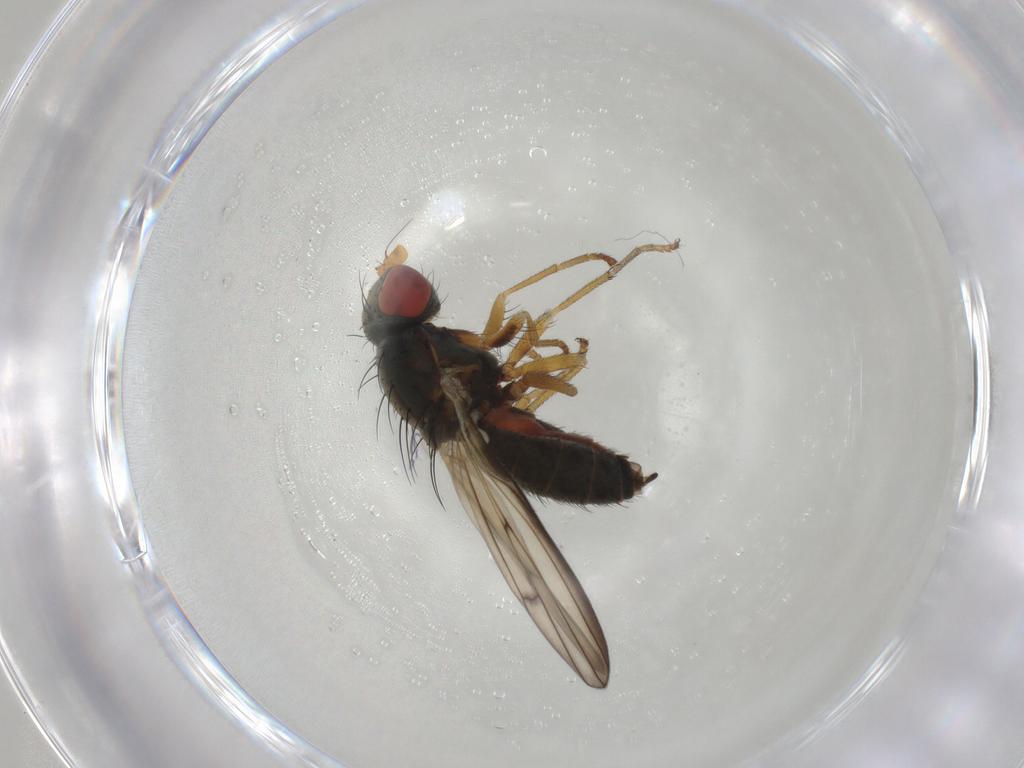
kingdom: Animalia
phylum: Arthropoda
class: Insecta
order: Diptera
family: Chamaemyiidae
